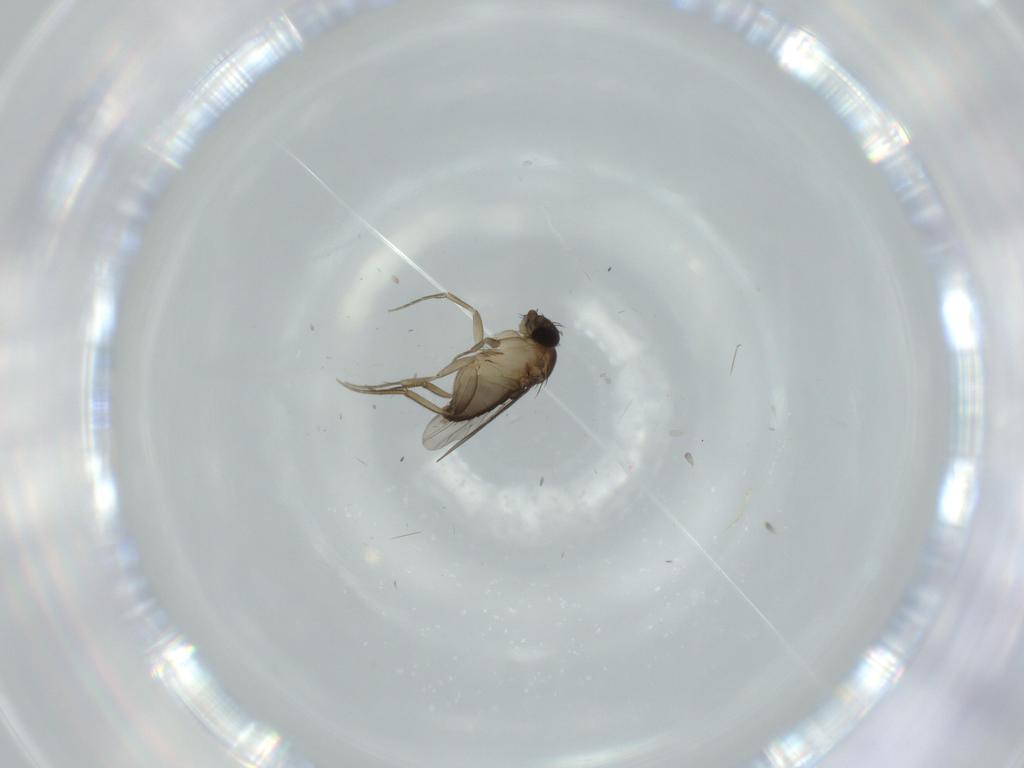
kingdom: Animalia
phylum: Arthropoda
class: Insecta
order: Diptera
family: Phoridae
